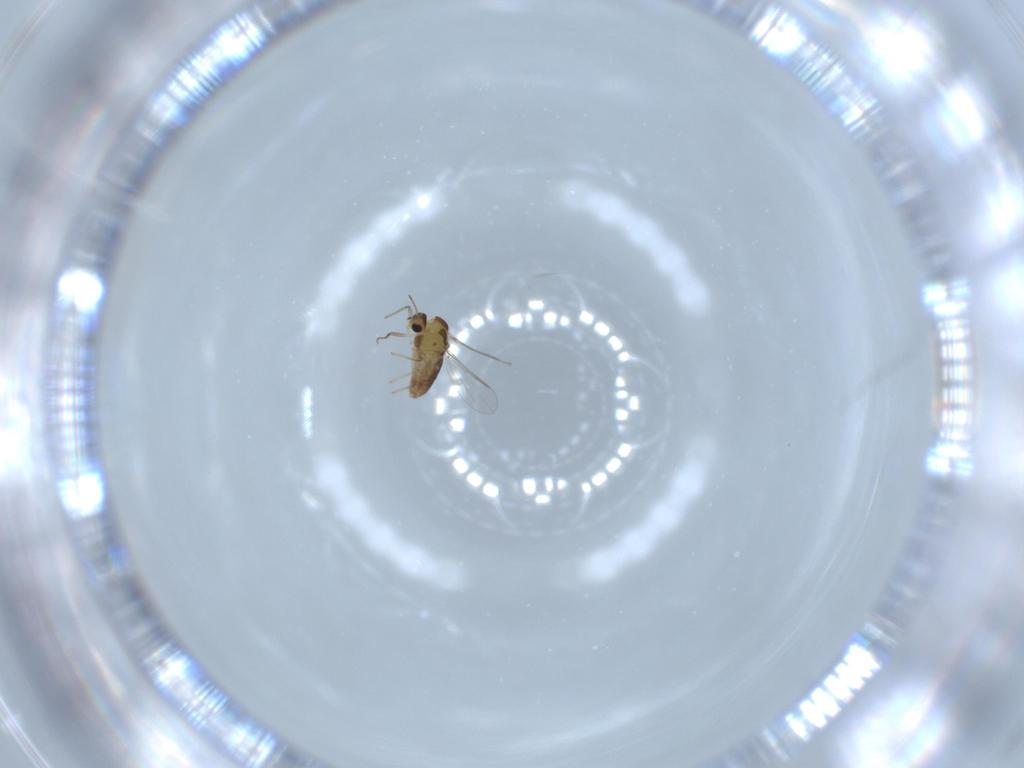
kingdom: Animalia
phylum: Arthropoda
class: Insecta
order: Diptera
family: Chironomidae
